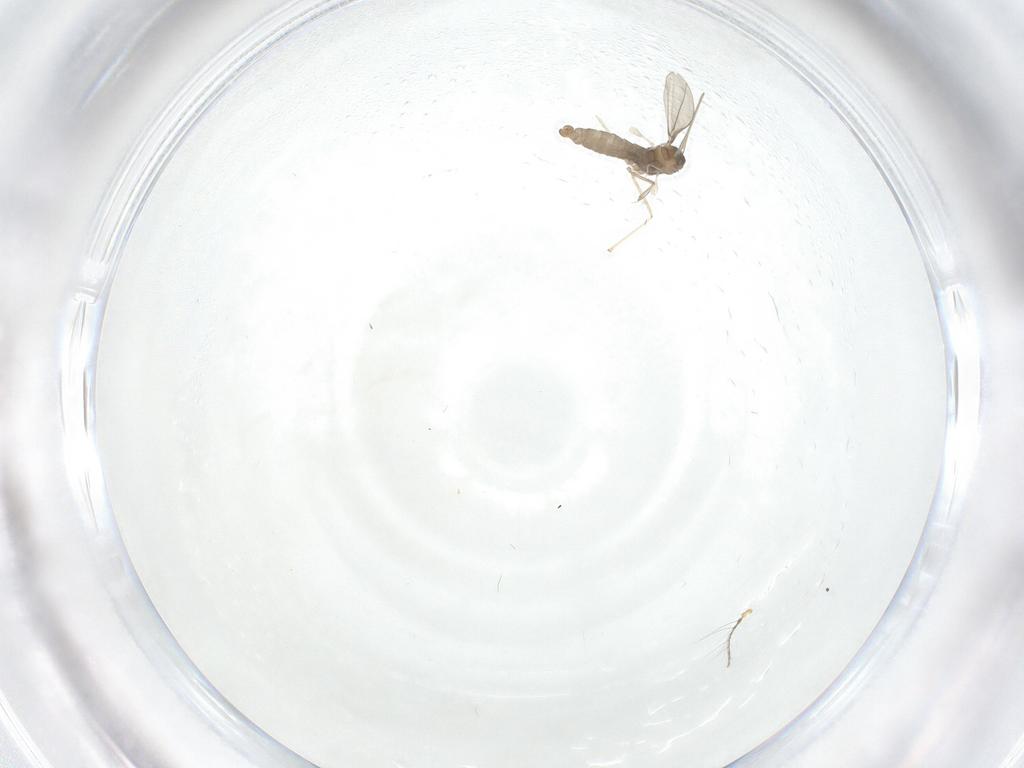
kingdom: Animalia
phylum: Arthropoda
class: Insecta
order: Diptera
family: Cecidomyiidae
